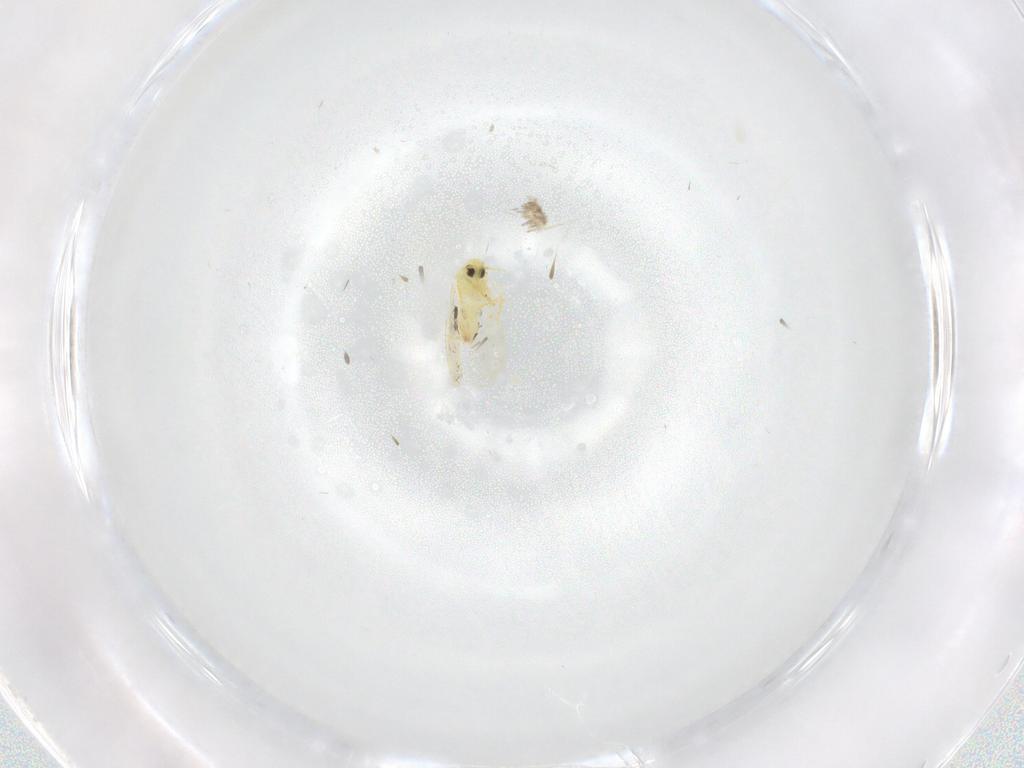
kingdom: Animalia
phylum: Arthropoda
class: Insecta
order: Hemiptera
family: Aleyrodidae
